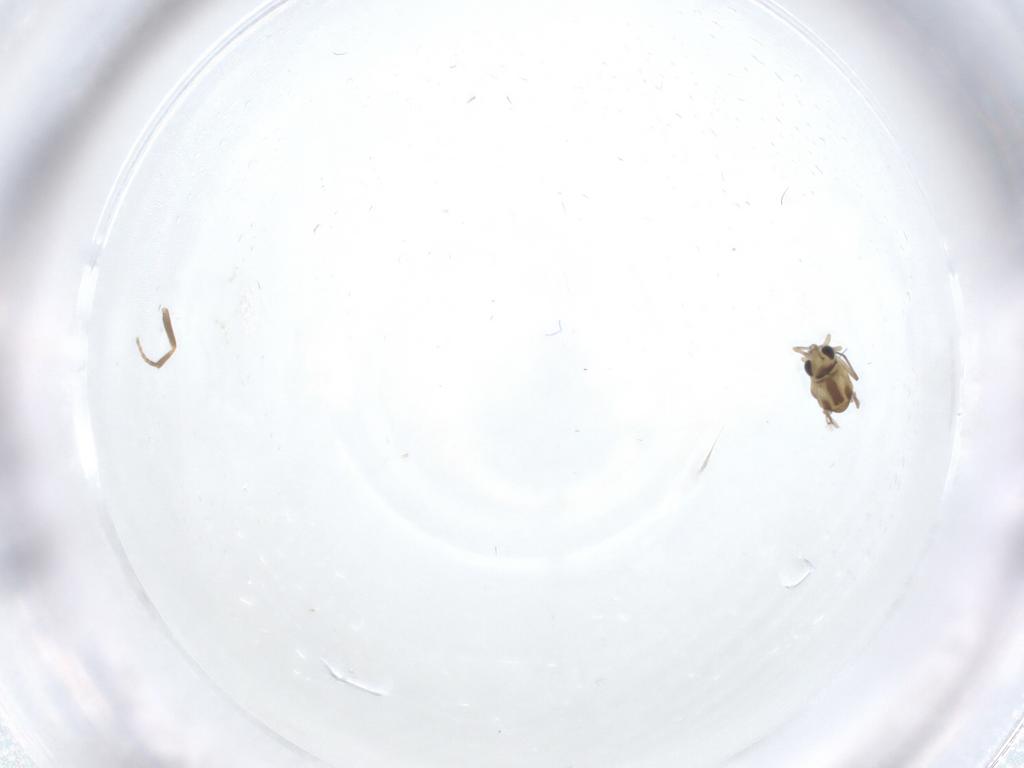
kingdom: Animalia
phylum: Arthropoda
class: Insecta
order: Diptera
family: Chironomidae
